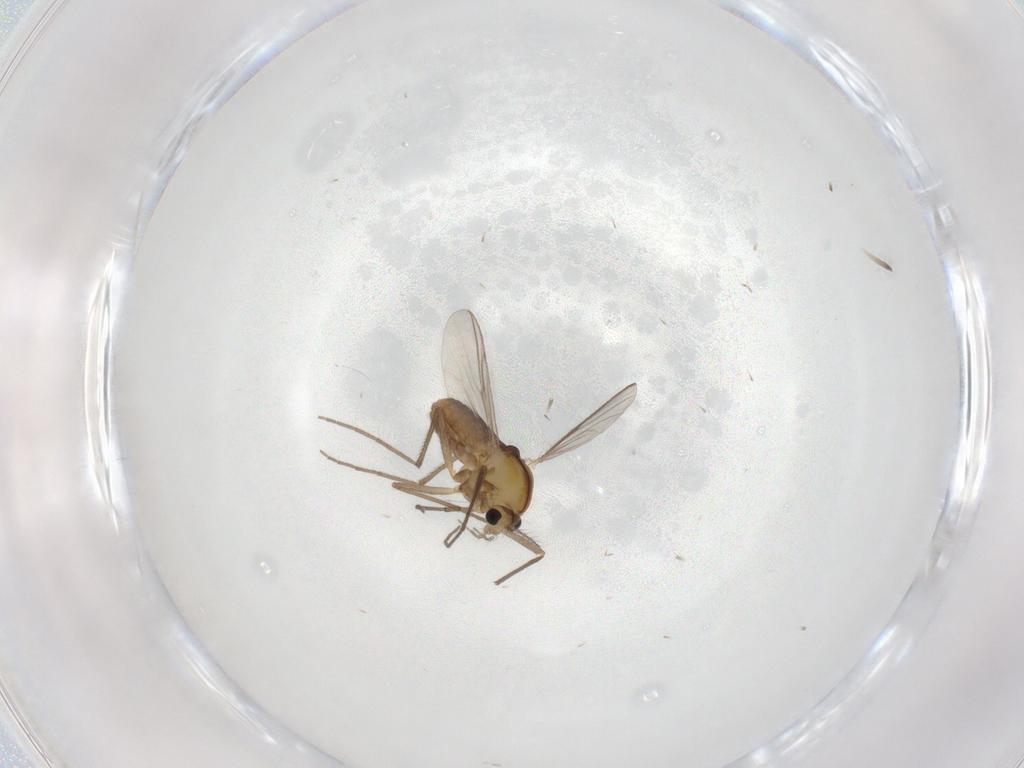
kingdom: Animalia
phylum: Arthropoda
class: Insecta
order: Diptera
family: Chironomidae
